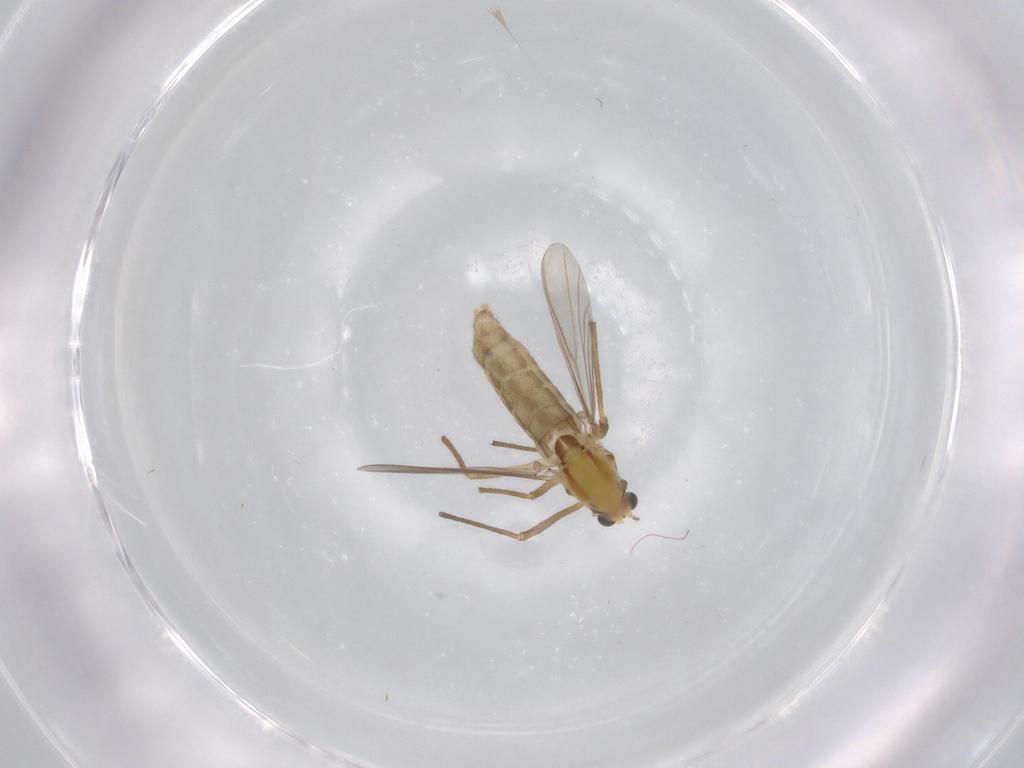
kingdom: Animalia
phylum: Arthropoda
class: Insecta
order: Diptera
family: Chironomidae
